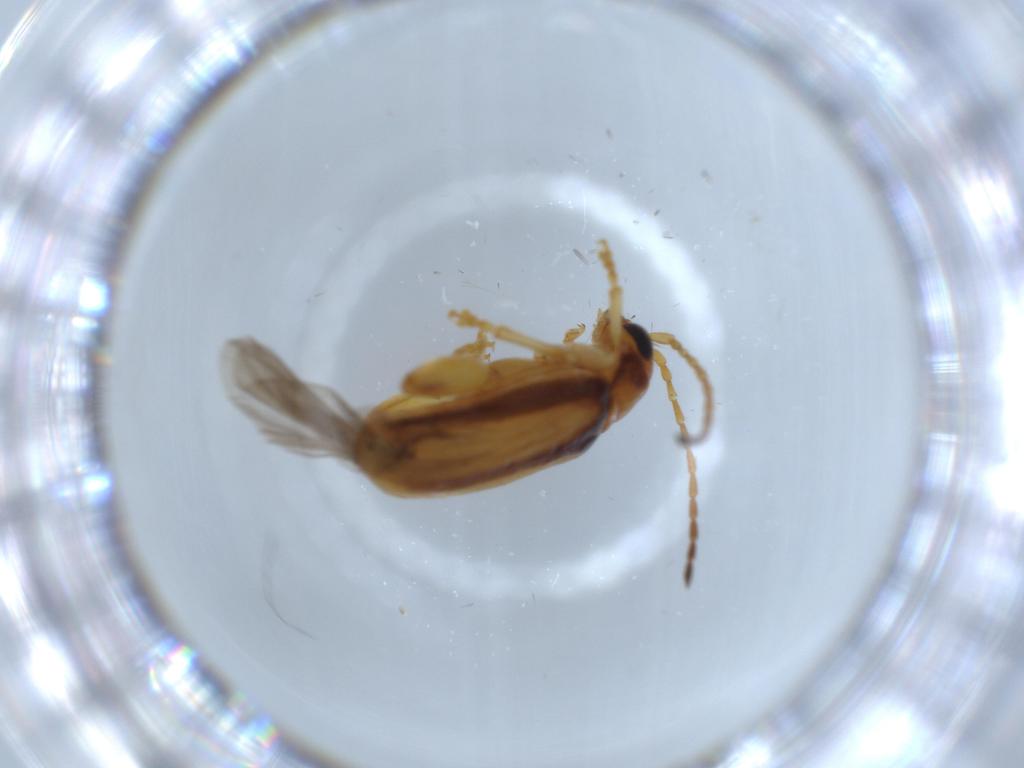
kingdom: Animalia
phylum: Arthropoda
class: Insecta
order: Coleoptera
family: Chrysomelidae
